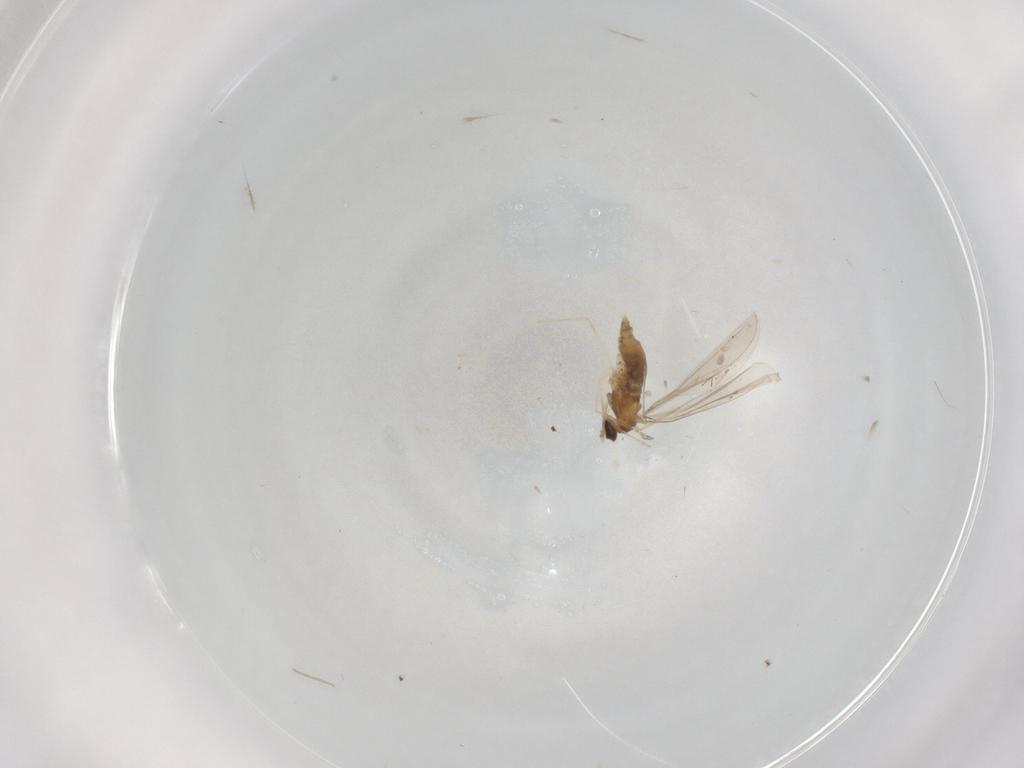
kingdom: Animalia
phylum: Arthropoda
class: Insecta
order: Diptera
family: Cecidomyiidae
